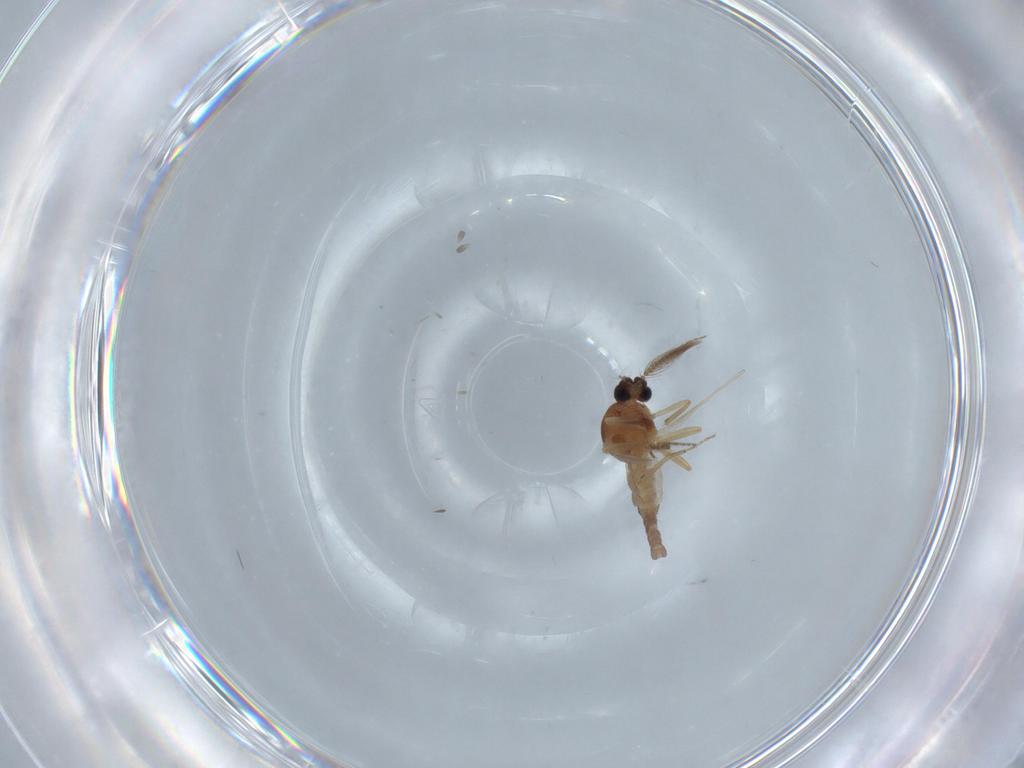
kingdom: Animalia
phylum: Arthropoda
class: Insecta
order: Diptera
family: Ceratopogonidae
